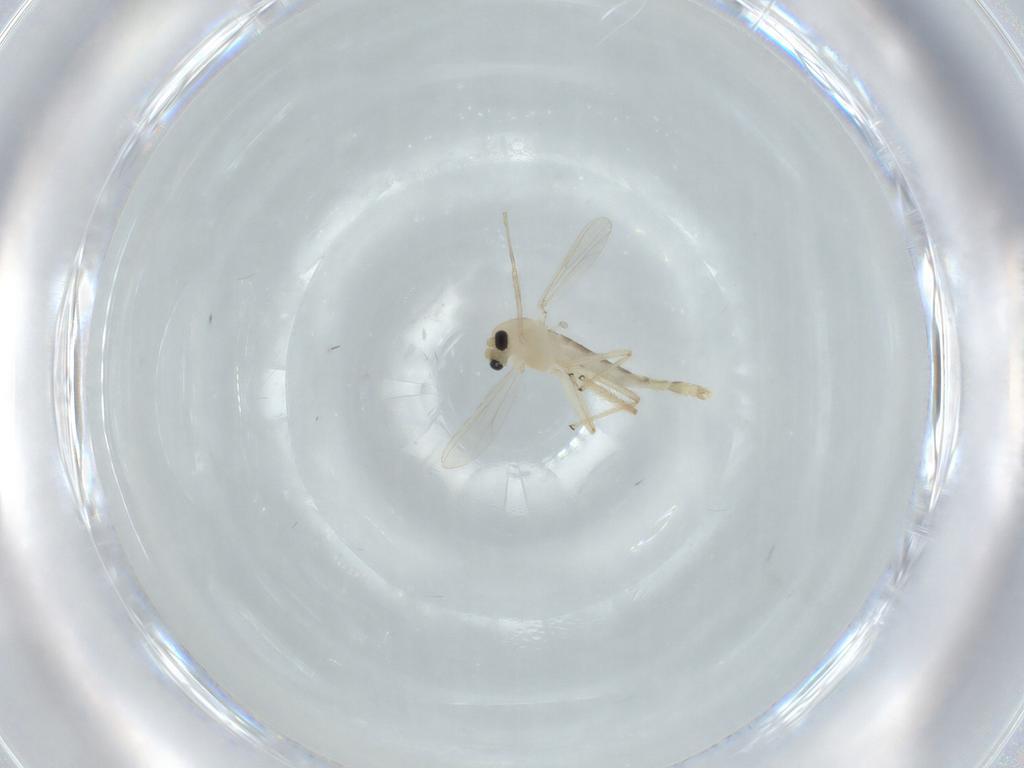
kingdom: Animalia
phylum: Arthropoda
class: Insecta
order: Diptera
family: Chironomidae
